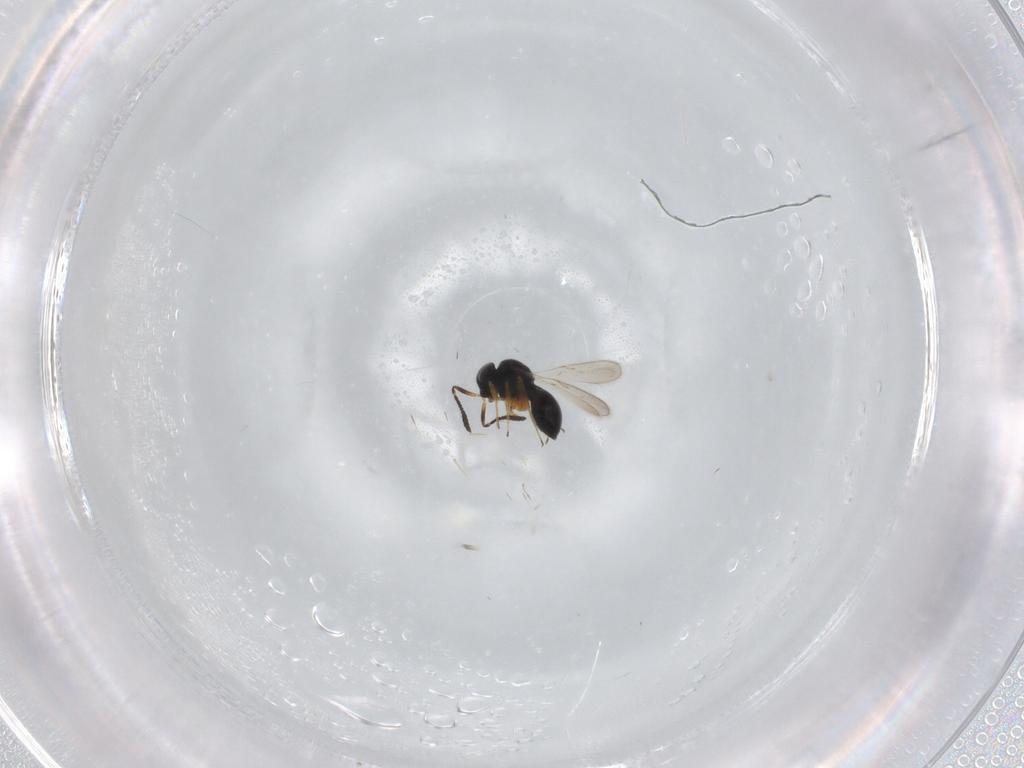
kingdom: Animalia
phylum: Arthropoda
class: Insecta
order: Hymenoptera
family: Scelionidae
